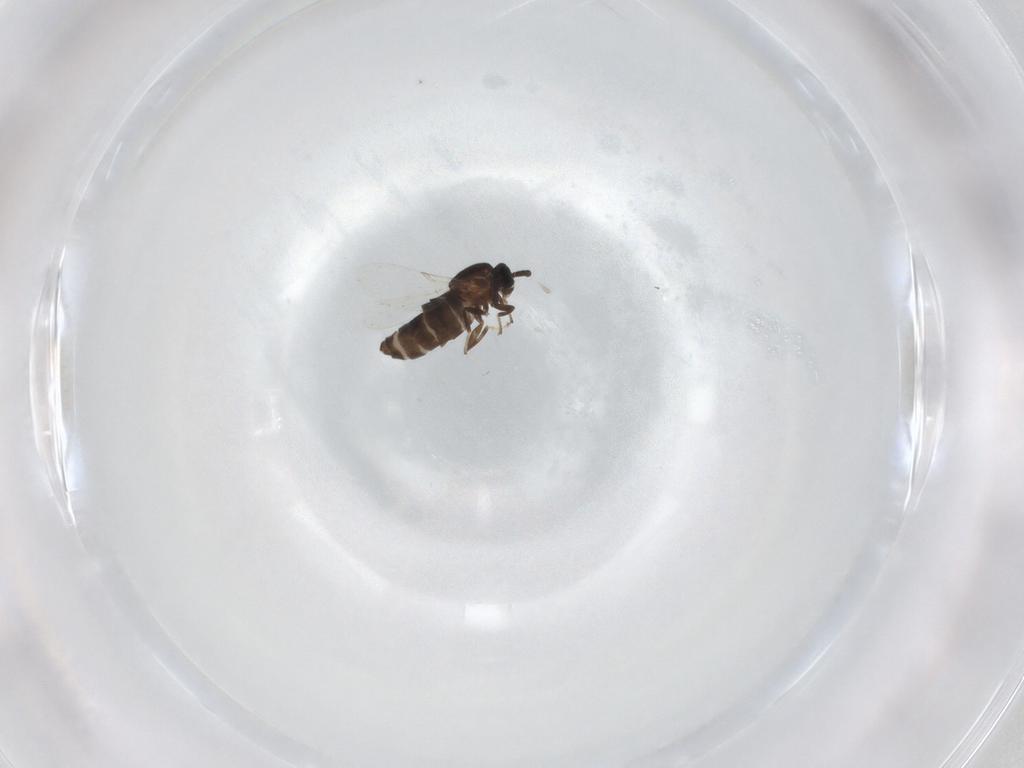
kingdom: Animalia
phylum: Arthropoda
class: Insecta
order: Diptera
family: Scatopsidae
